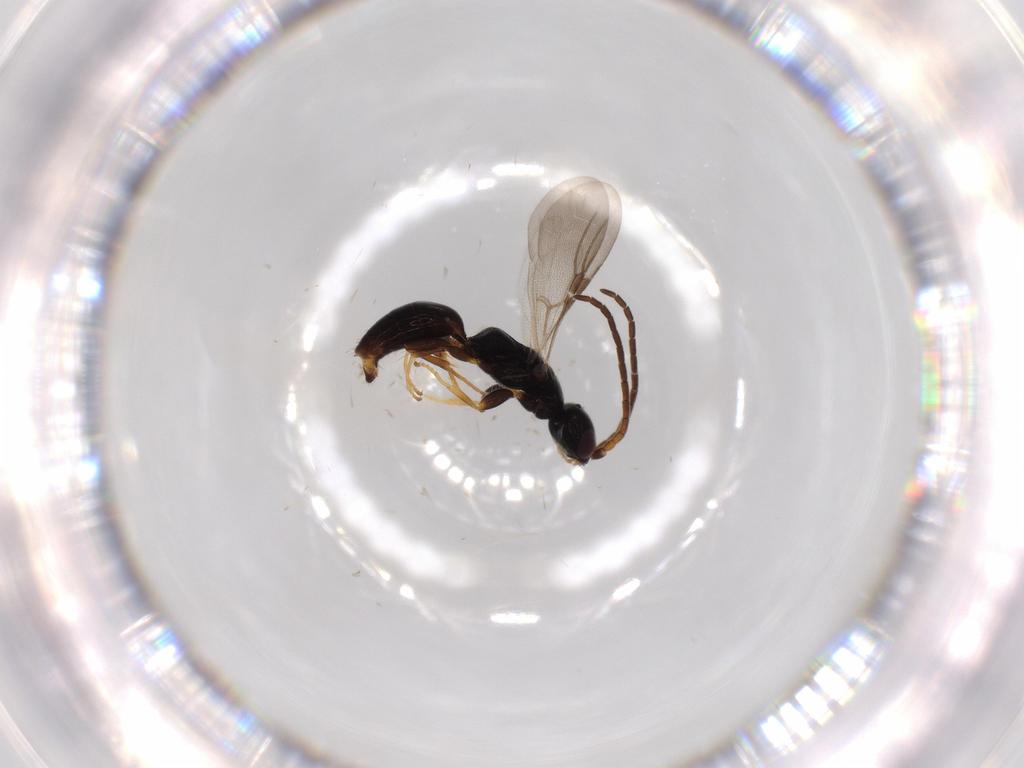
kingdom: Animalia
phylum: Arthropoda
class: Insecta
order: Hymenoptera
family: Bethylidae
